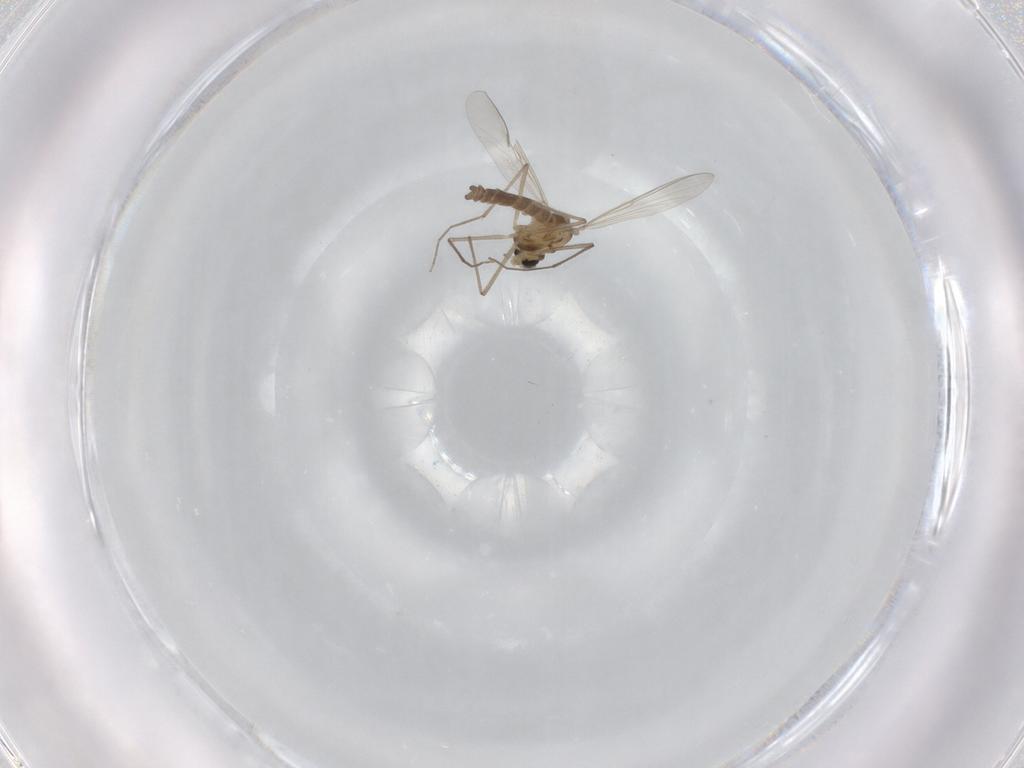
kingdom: Animalia
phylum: Arthropoda
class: Insecta
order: Diptera
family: Chironomidae
